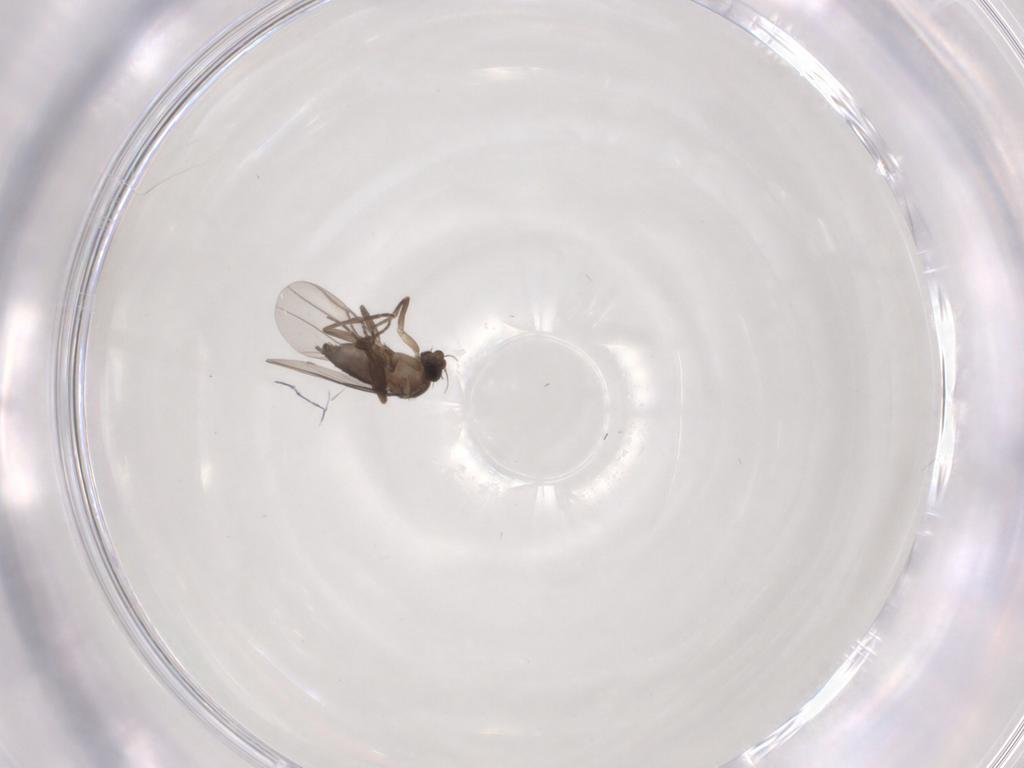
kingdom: Animalia
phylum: Arthropoda
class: Insecta
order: Diptera
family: Phoridae
